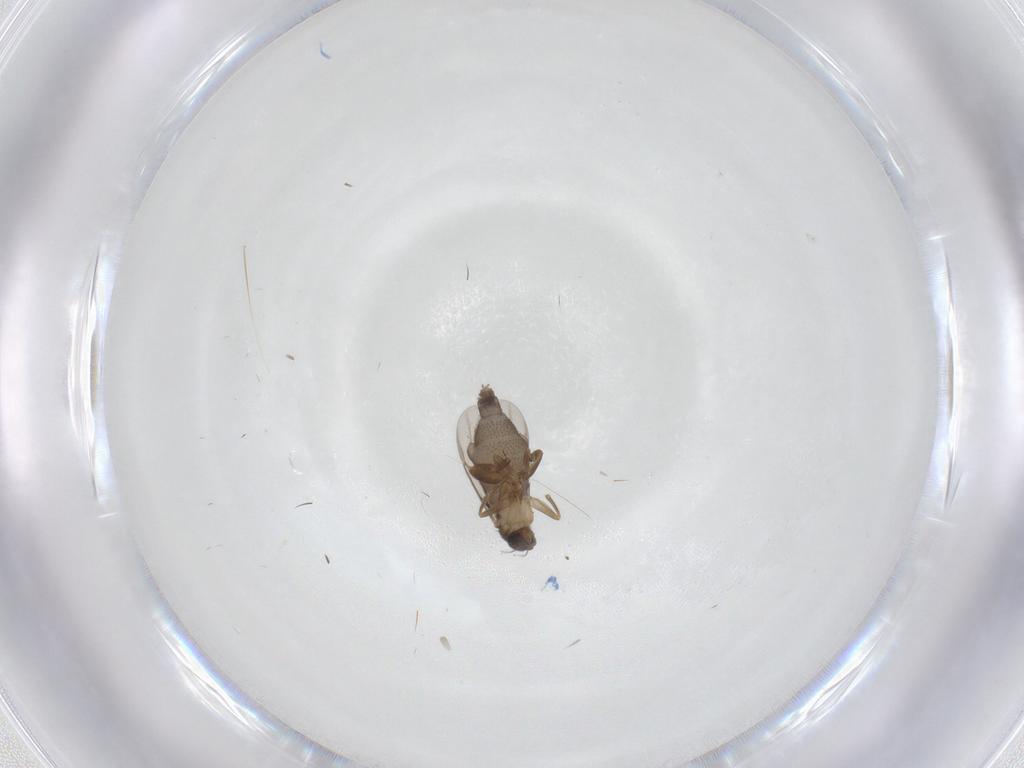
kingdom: Animalia
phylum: Arthropoda
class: Insecta
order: Diptera
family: Phoridae
